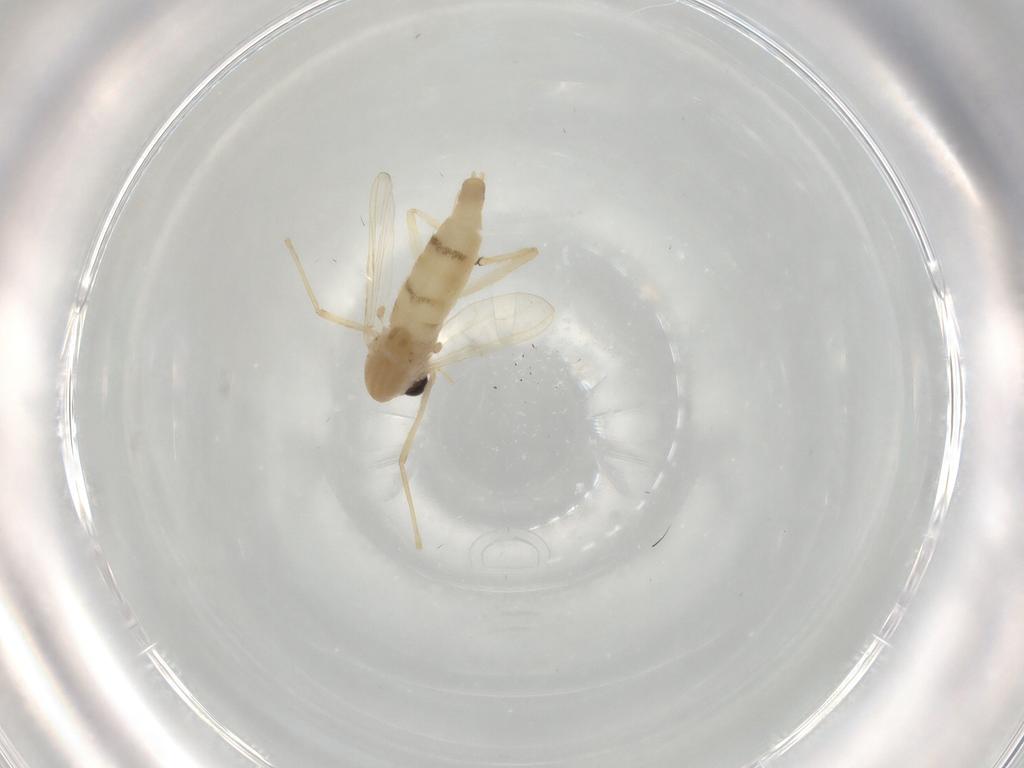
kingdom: Animalia
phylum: Arthropoda
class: Insecta
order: Diptera
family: Chironomidae
